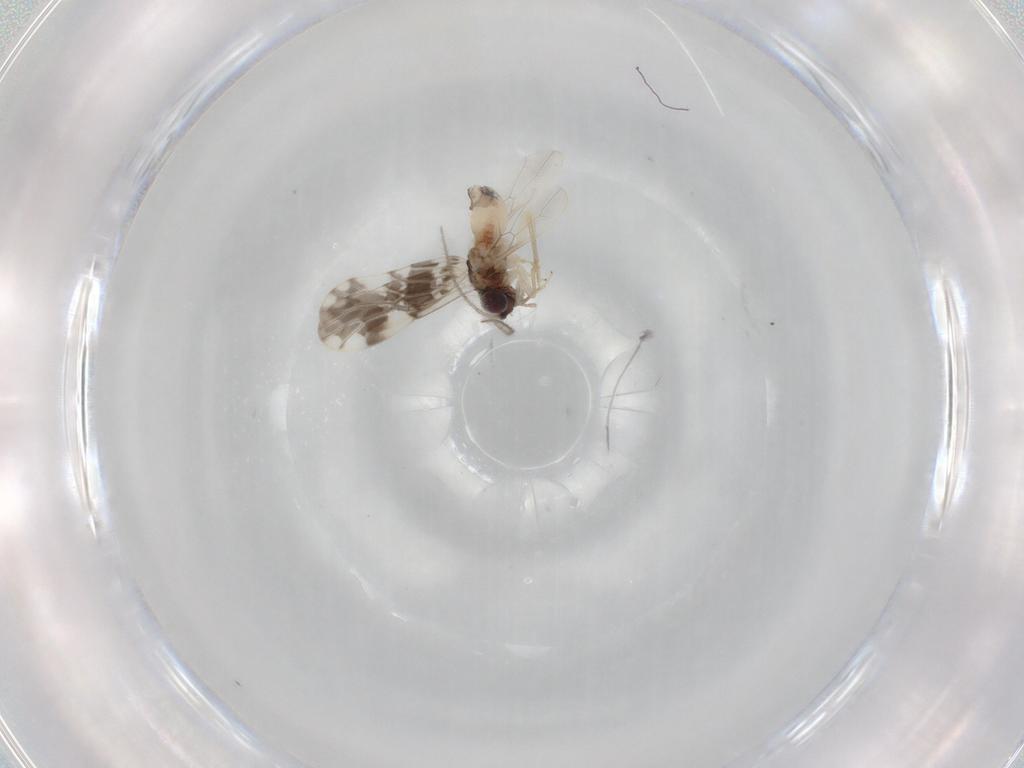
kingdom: Animalia
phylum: Arthropoda
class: Insecta
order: Psocodea
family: Ectopsocidae
